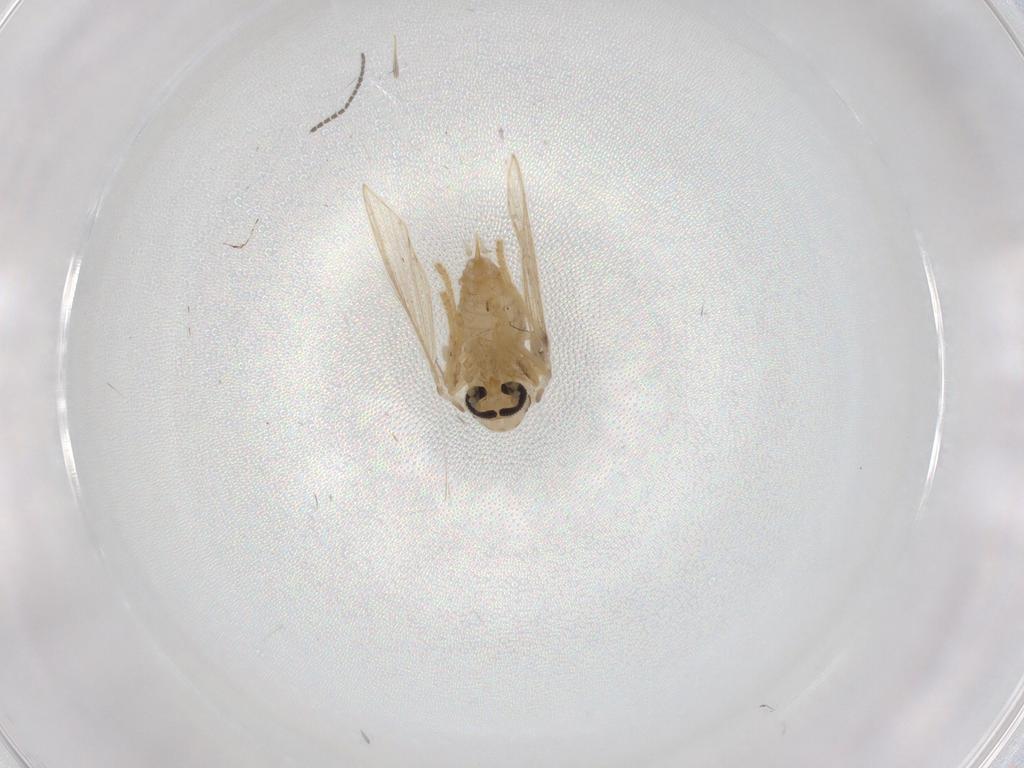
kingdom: Animalia
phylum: Arthropoda
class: Insecta
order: Diptera
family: Psychodidae
